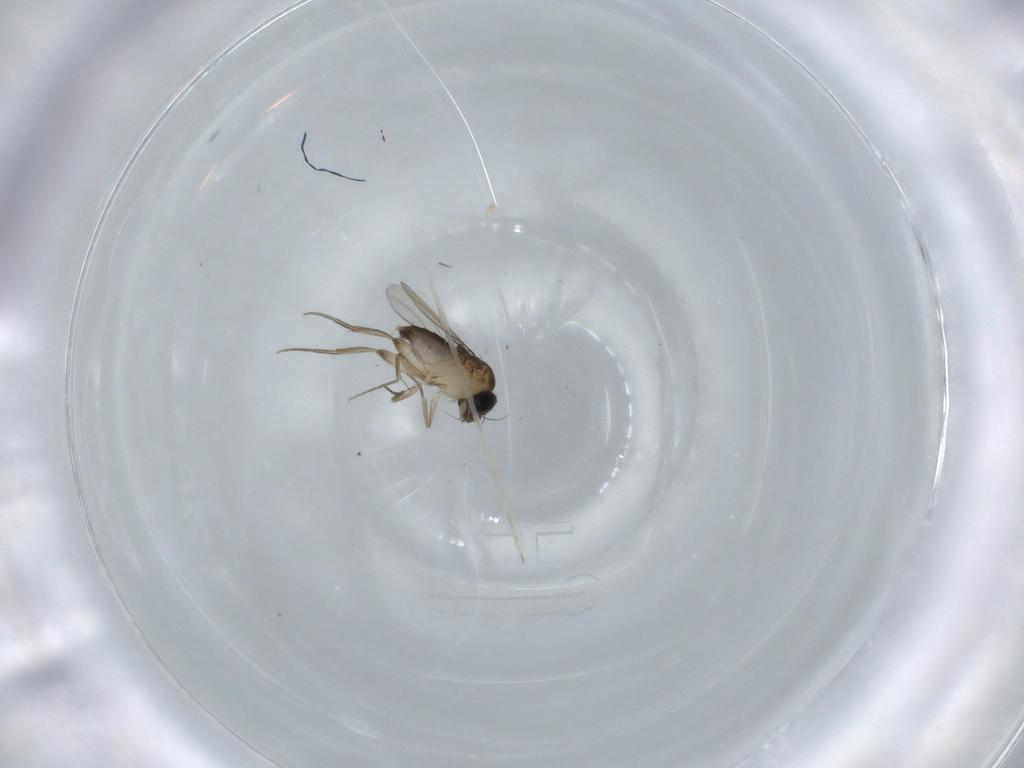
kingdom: Animalia
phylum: Arthropoda
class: Insecta
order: Diptera
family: Phoridae
